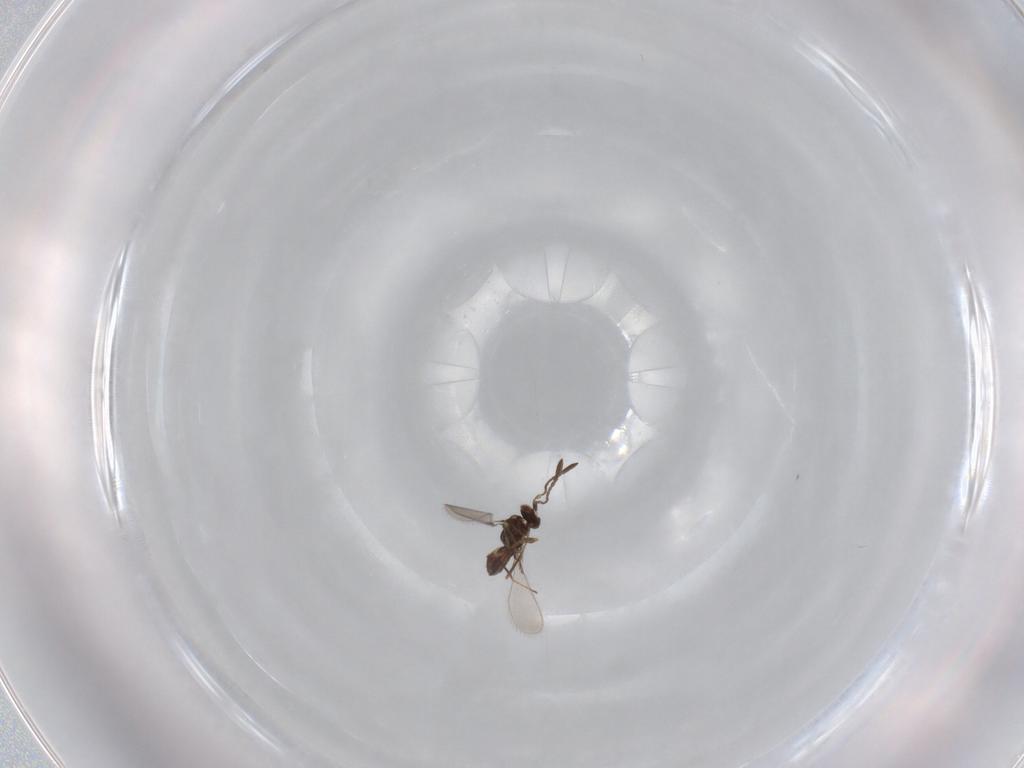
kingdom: Animalia
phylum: Arthropoda
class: Insecta
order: Hymenoptera
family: Mymaridae
